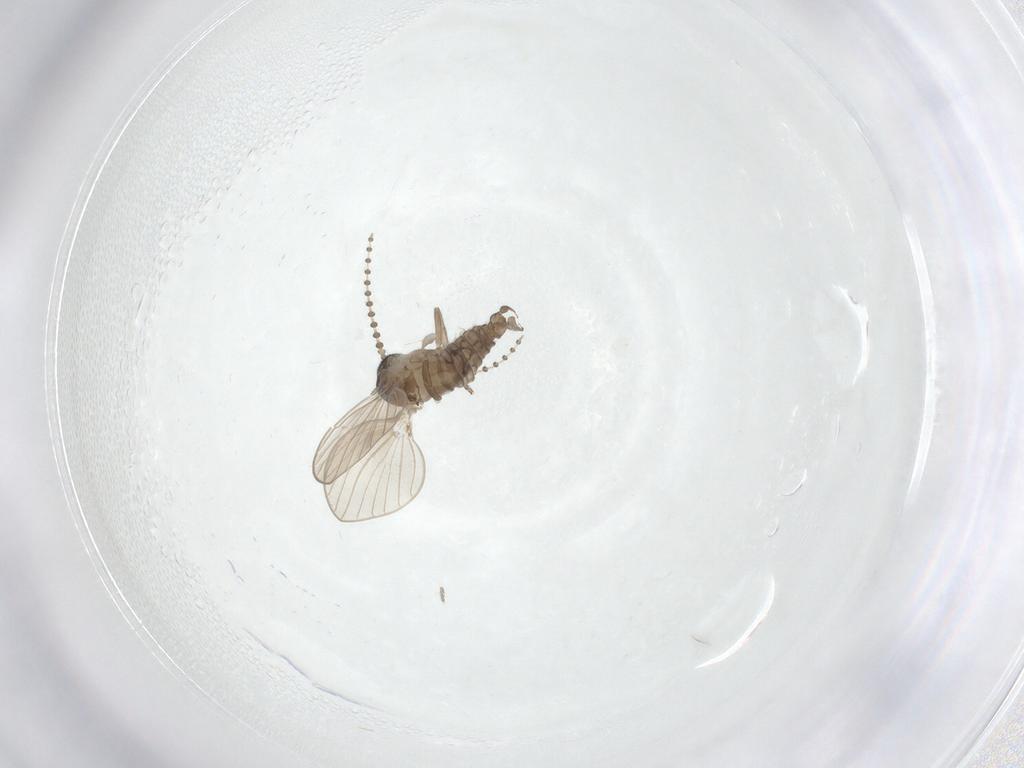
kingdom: Animalia
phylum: Arthropoda
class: Insecta
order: Diptera
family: Psychodidae
